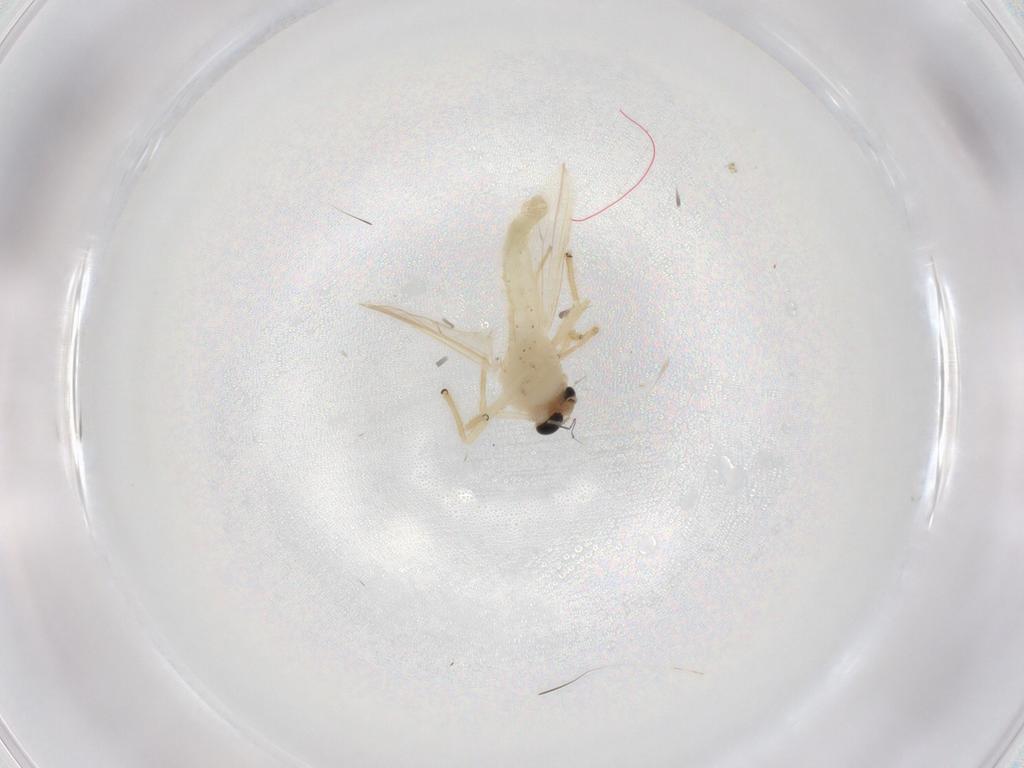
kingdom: Animalia
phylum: Arthropoda
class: Insecta
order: Diptera
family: Chironomidae
